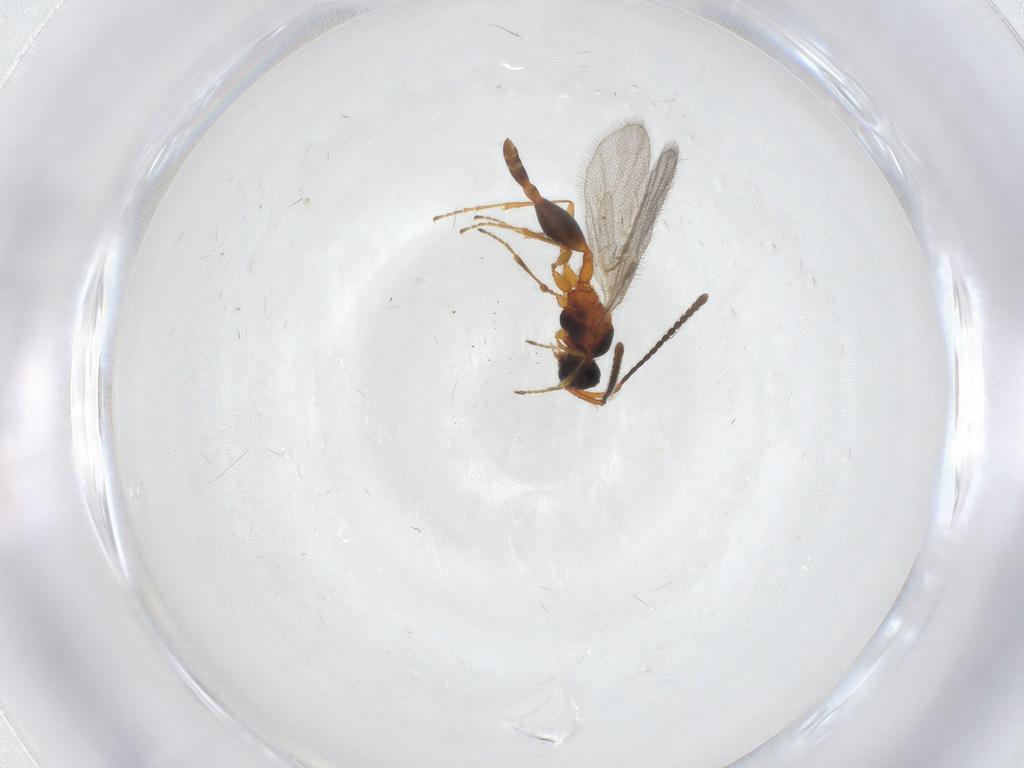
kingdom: Animalia
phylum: Arthropoda
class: Insecta
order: Hymenoptera
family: Diapriidae
